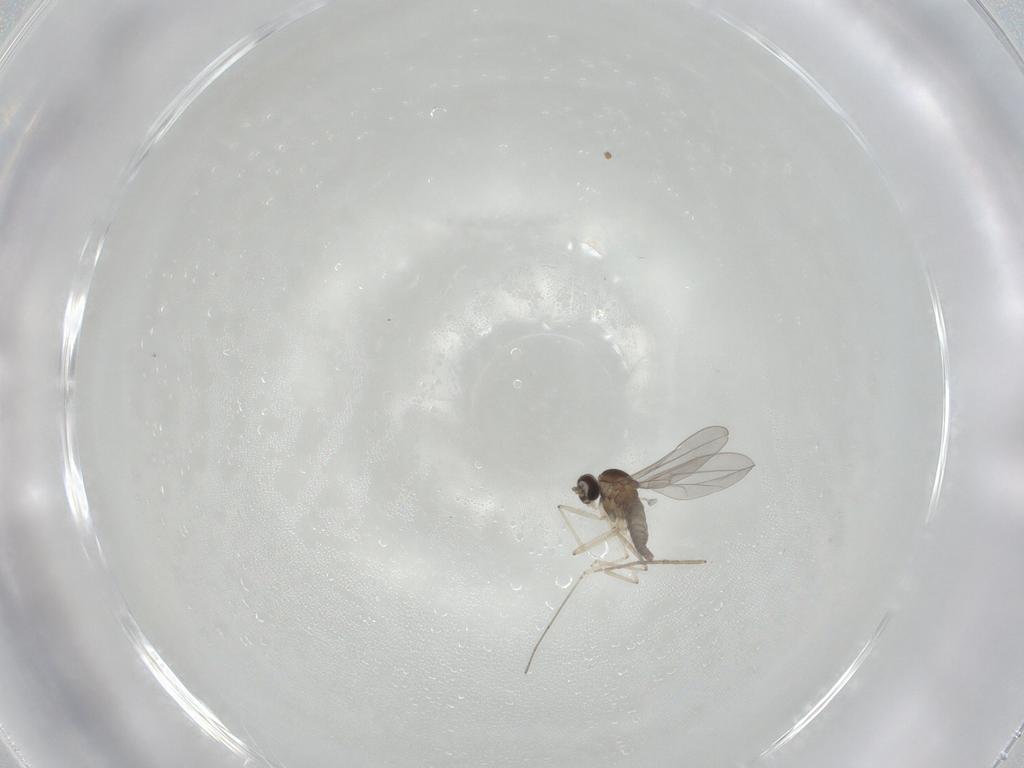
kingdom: Animalia
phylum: Arthropoda
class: Insecta
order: Diptera
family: Cecidomyiidae
